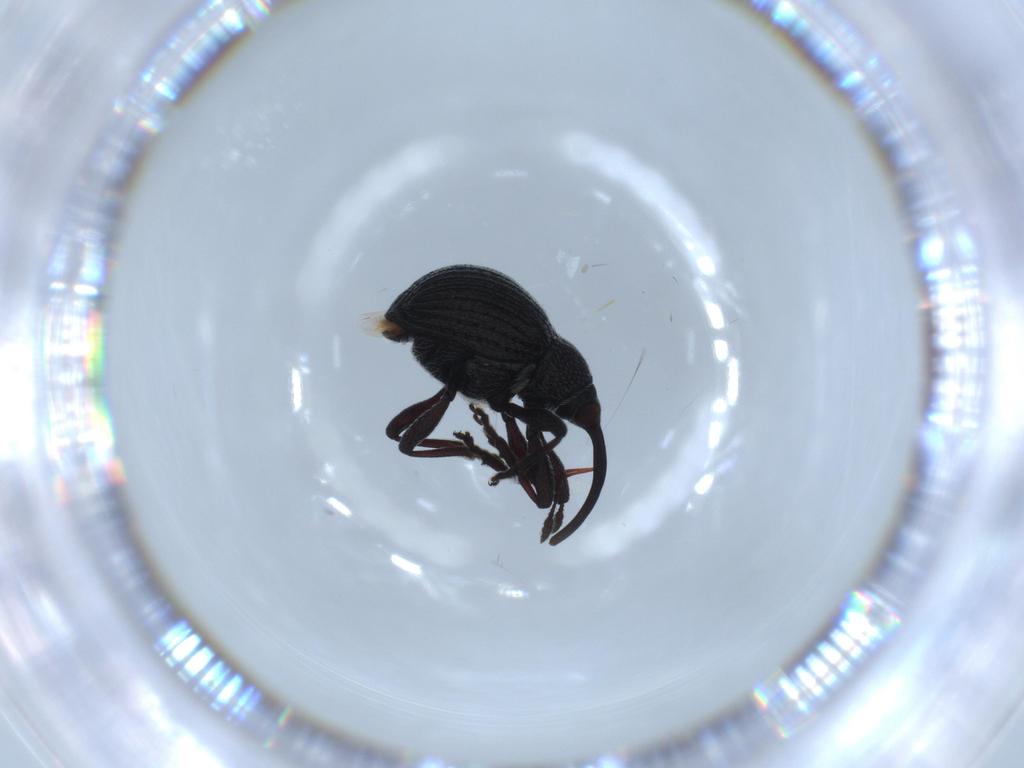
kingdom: Animalia
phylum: Arthropoda
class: Insecta
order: Coleoptera
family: Brentidae
